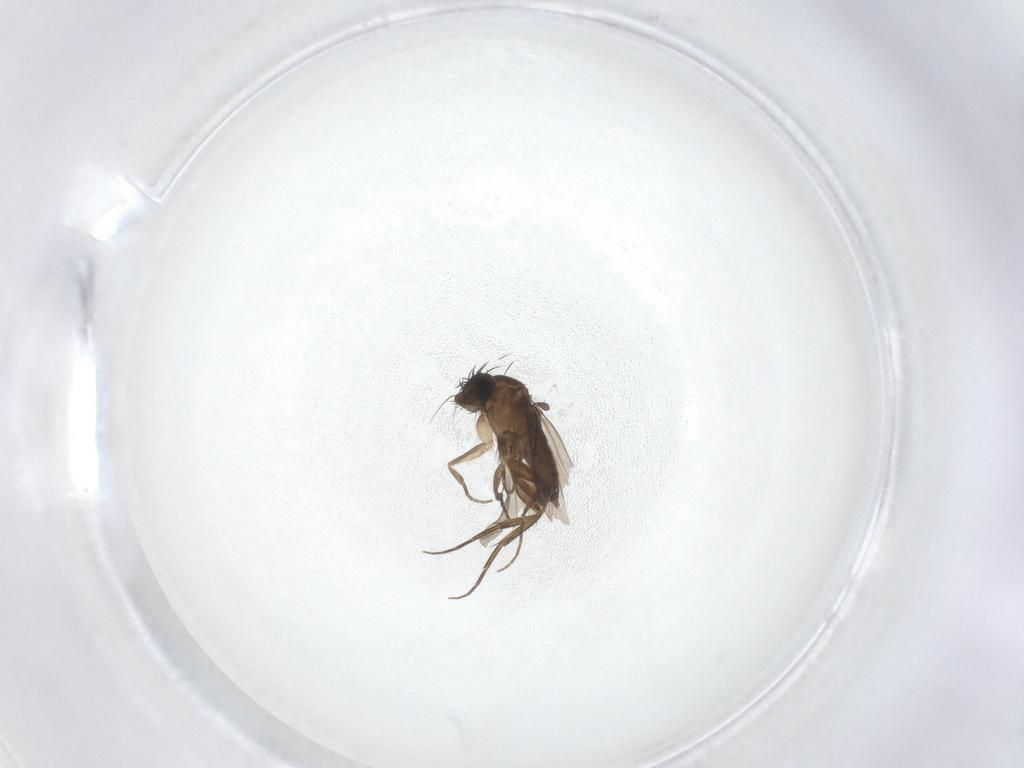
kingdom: Animalia
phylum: Arthropoda
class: Insecta
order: Diptera
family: Phoridae
